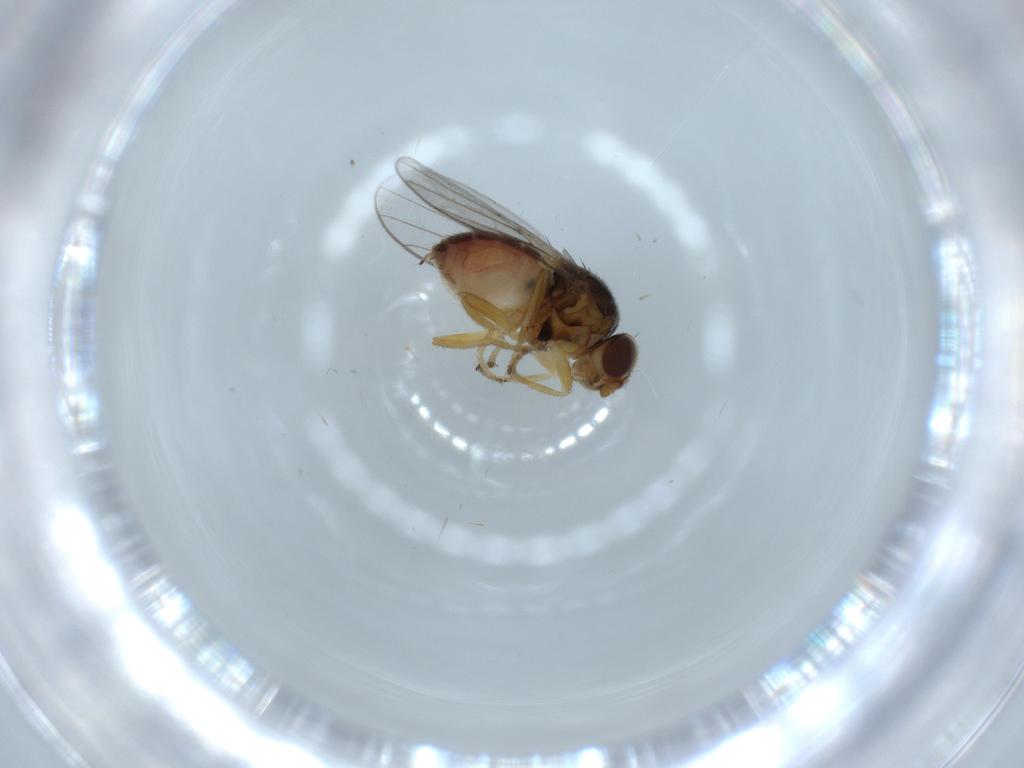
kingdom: Animalia
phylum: Arthropoda
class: Insecta
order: Diptera
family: Chloropidae
